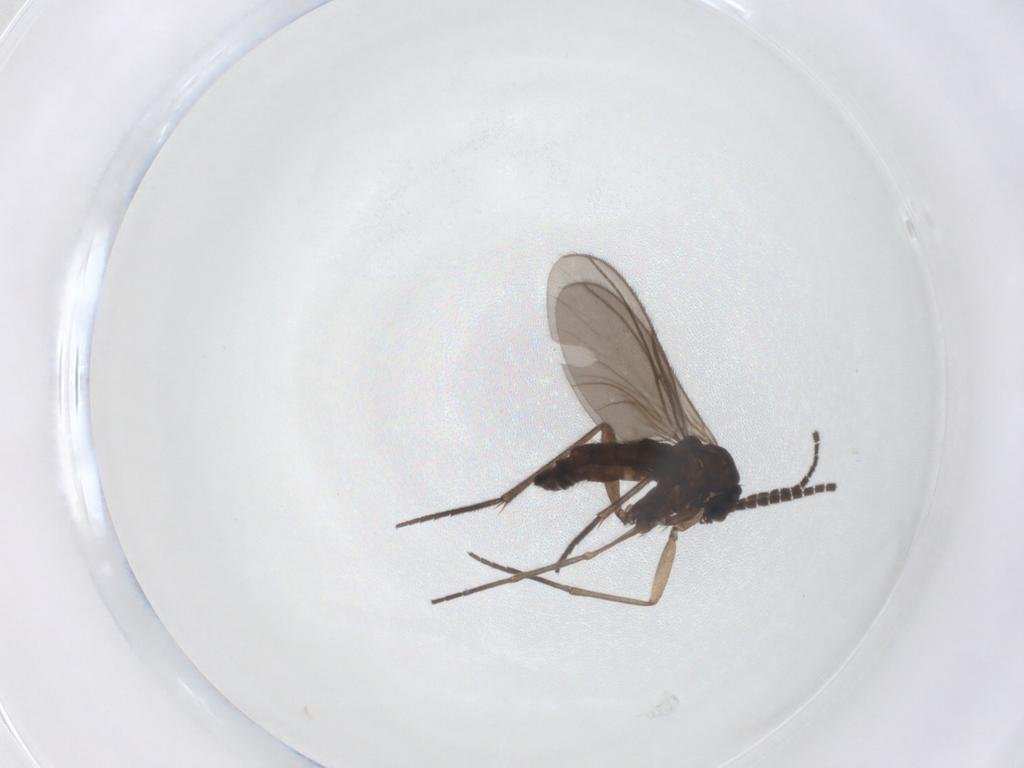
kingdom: Animalia
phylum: Arthropoda
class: Insecta
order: Diptera
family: Sciaridae
